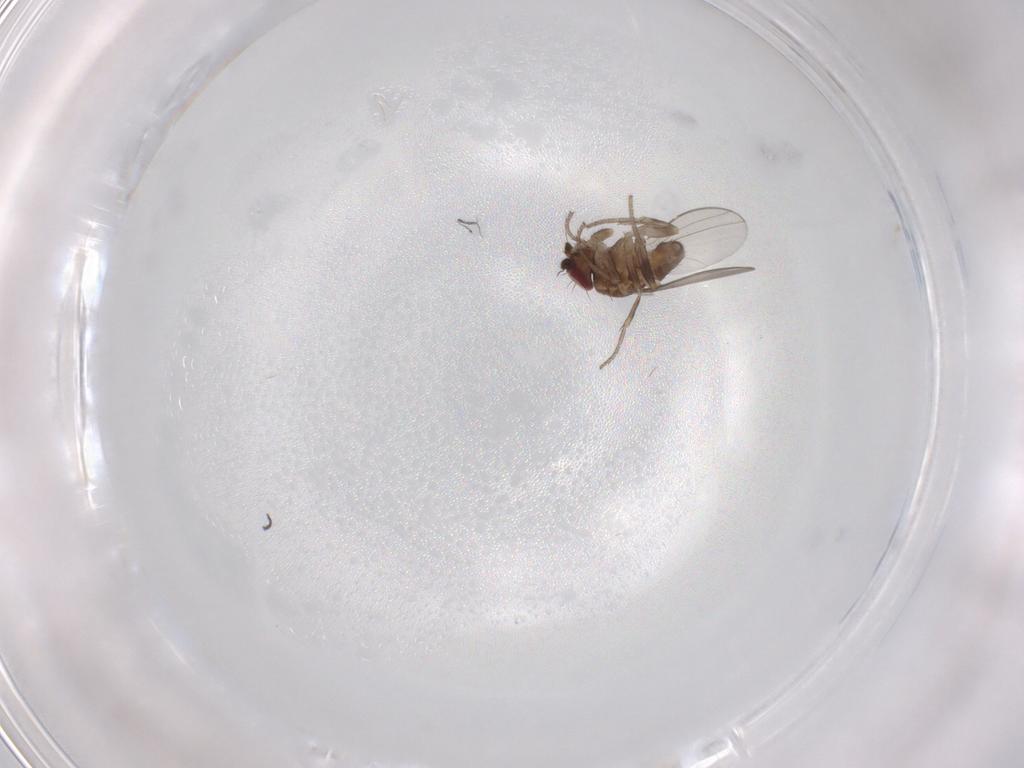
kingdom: Animalia
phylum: Arthropoda
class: Insecta
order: Diptera
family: Milichiidae
